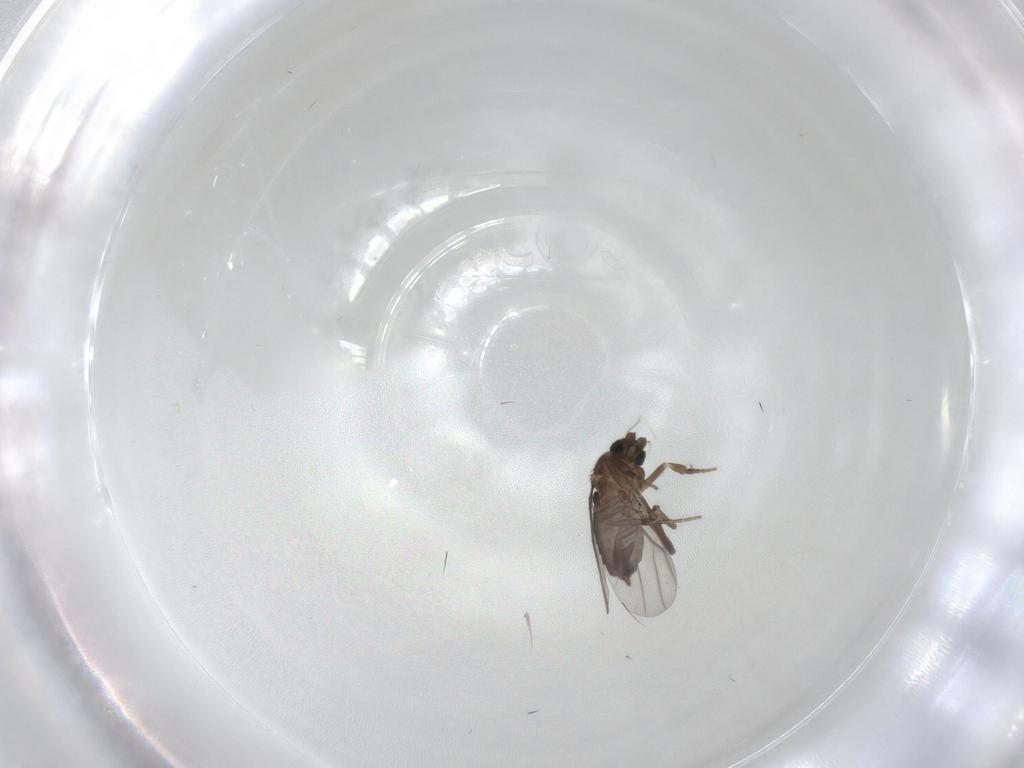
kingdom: Animalia
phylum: Arthropoda
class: Insecta
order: Diptera
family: Phoridae
